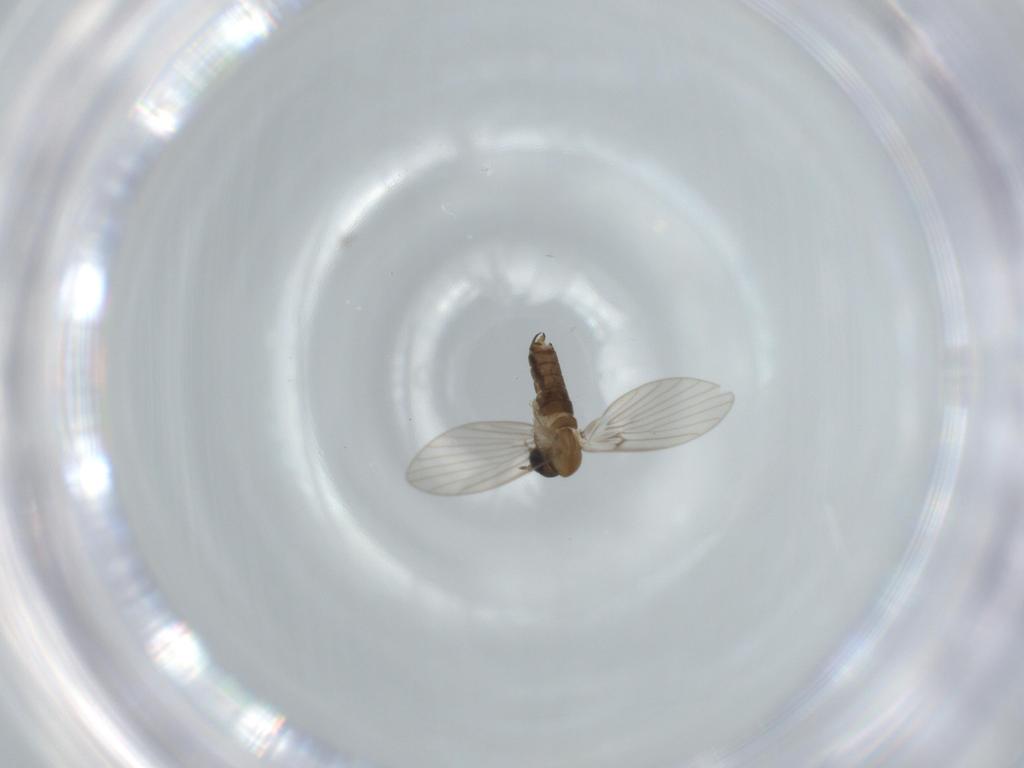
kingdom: Animalia
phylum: Arthropoda
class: Insecta
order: Diptera
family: Psychodidae
